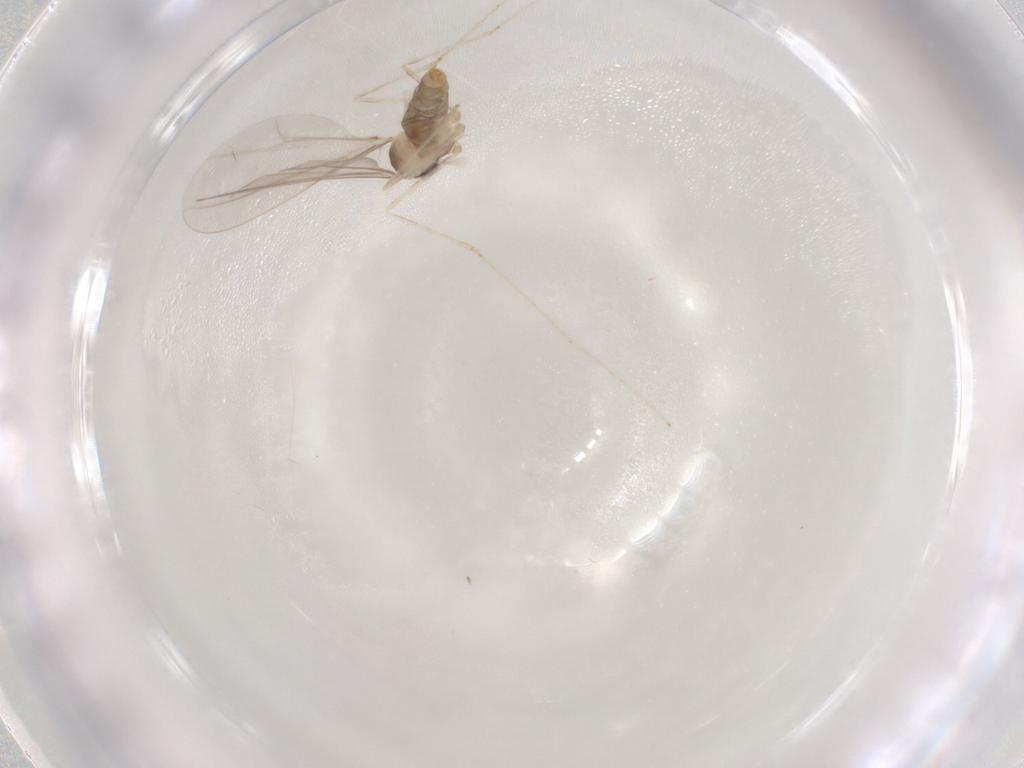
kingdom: Animalia
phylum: Arthropoda
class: Insecta
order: Diptera
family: Cecidomyiidae
